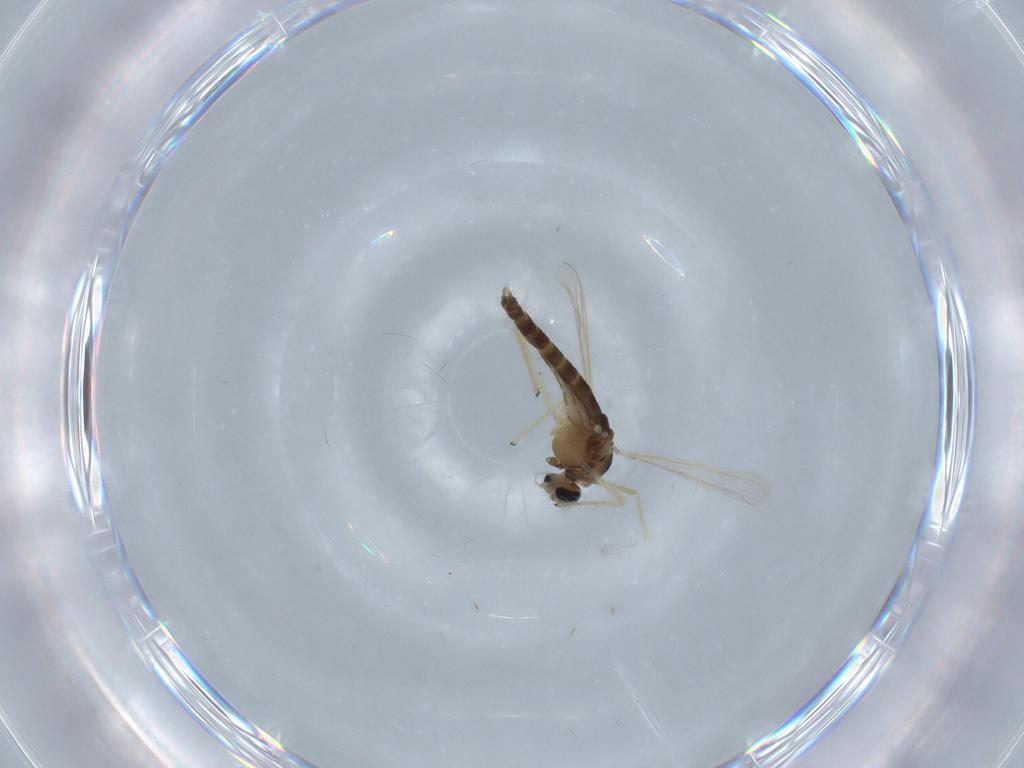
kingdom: Animalia
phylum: Arthropoda
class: Insecta
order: Diptera
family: Chironomidae
